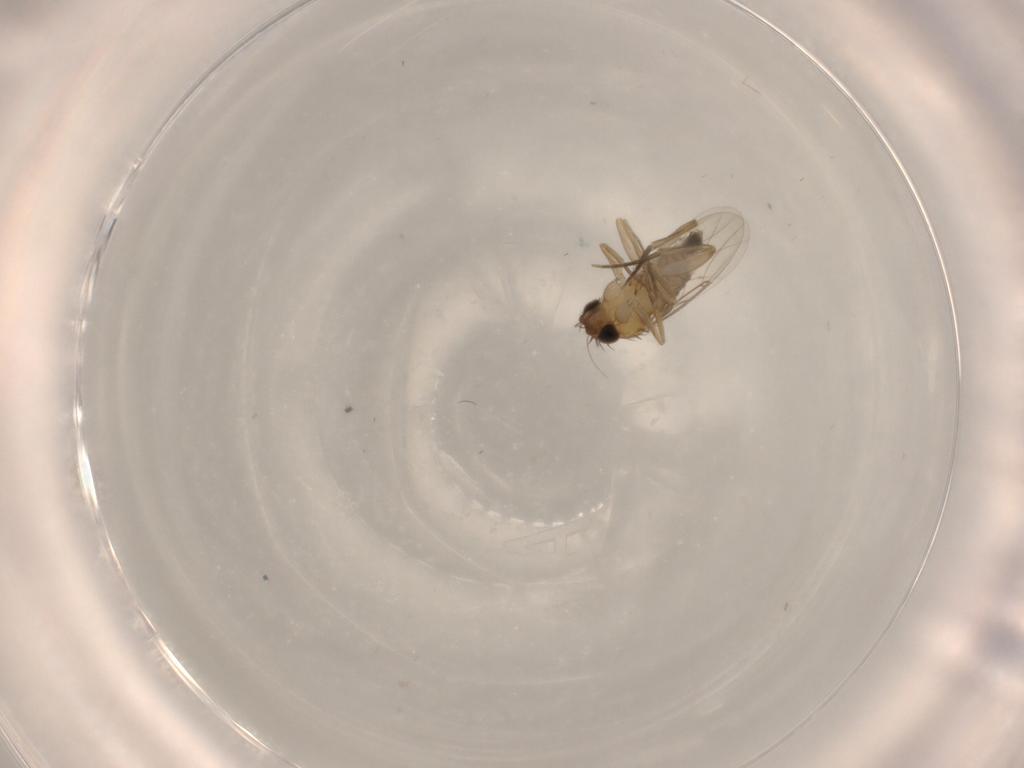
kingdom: Animalia
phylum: Arthropoda
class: Insecta
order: Diptera
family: Phoridae
